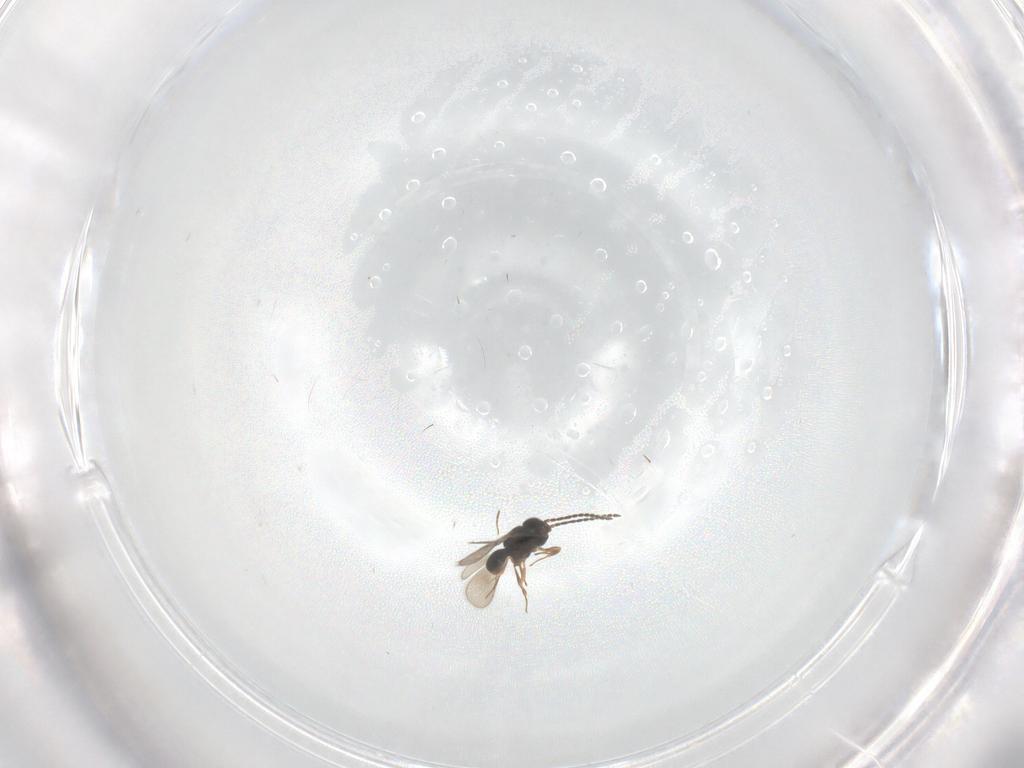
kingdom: Animalia
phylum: Arthropoda
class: Insecta
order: Hymenoptera
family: Scelionidae
